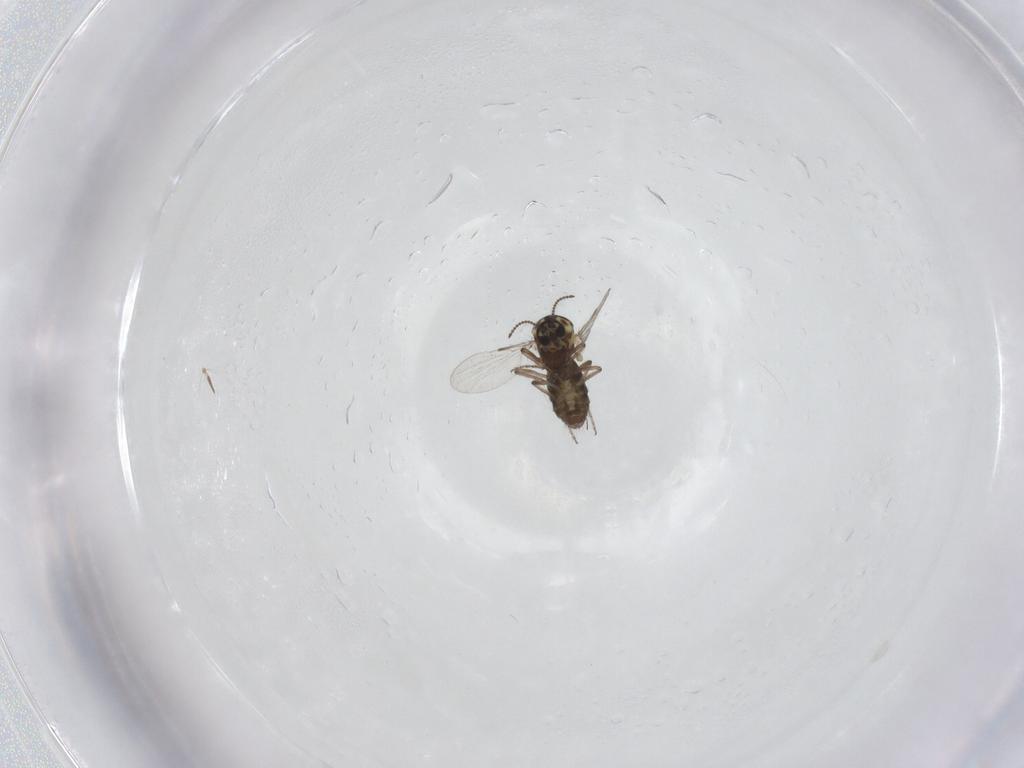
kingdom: Animalia
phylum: Arthropoda
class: Insecta
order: Diptera
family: Ceratopogonidae
